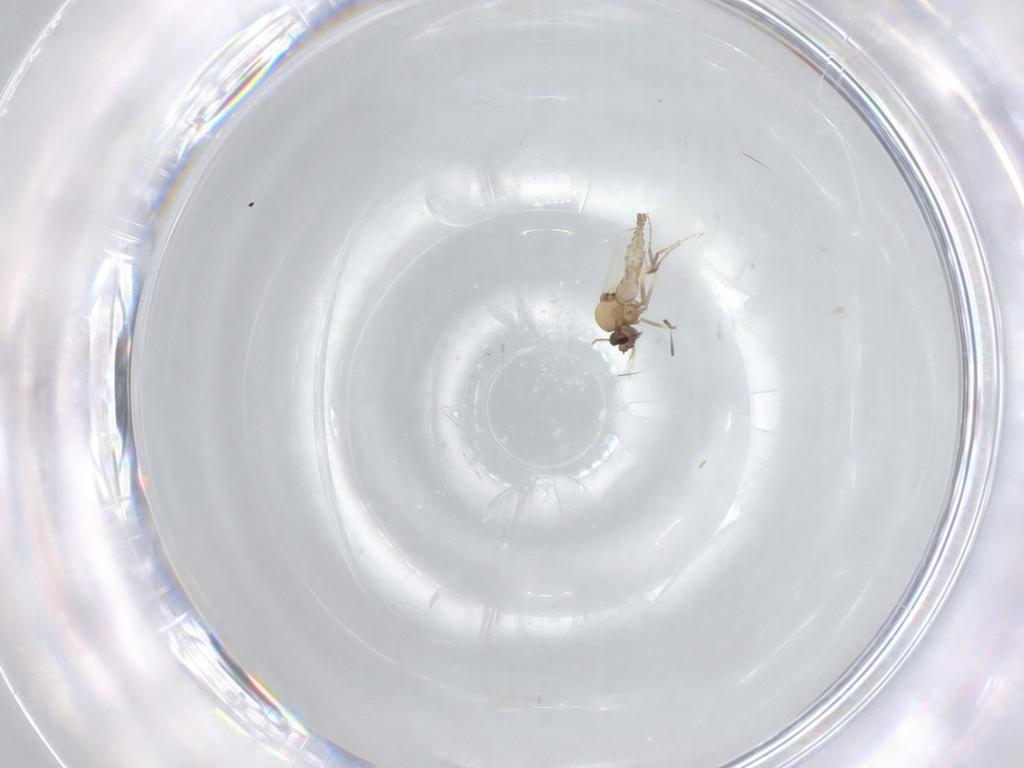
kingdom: Animalia
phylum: Arthropoda
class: Insecta
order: Diptera
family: Ceratopogonidae
